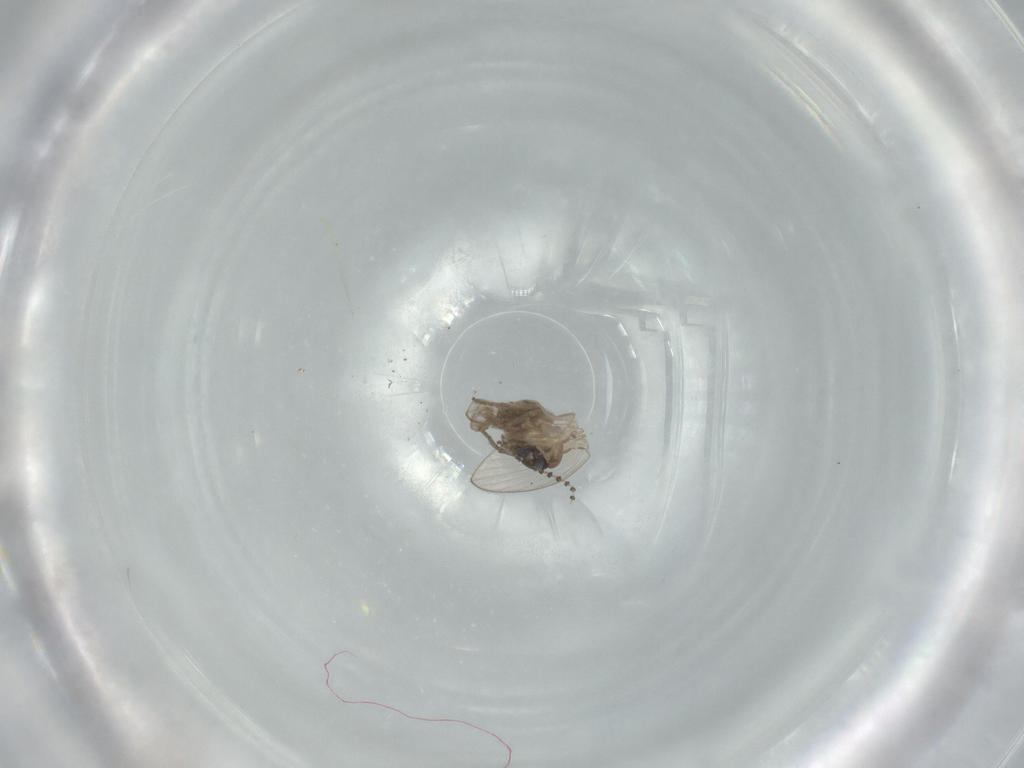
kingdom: Animalia
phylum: Arthropoda
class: Insecta
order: Diptera
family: Psychodidae
